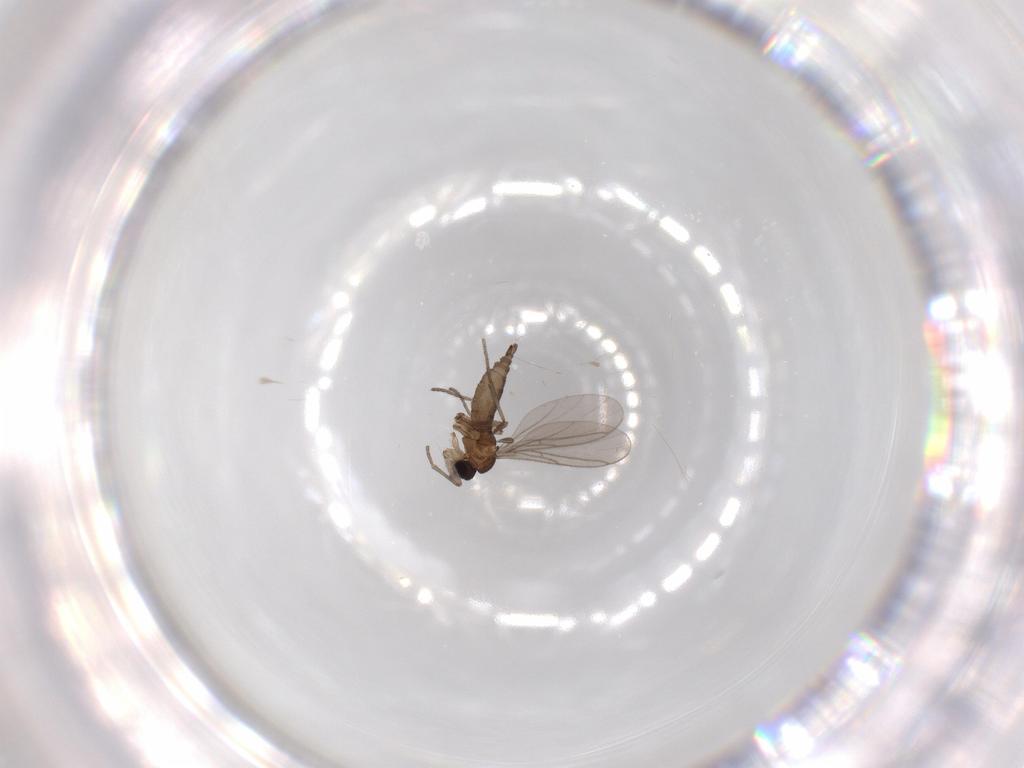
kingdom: Animalia
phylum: Arthropoda
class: Insecta
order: Diptera
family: Sciaridae
